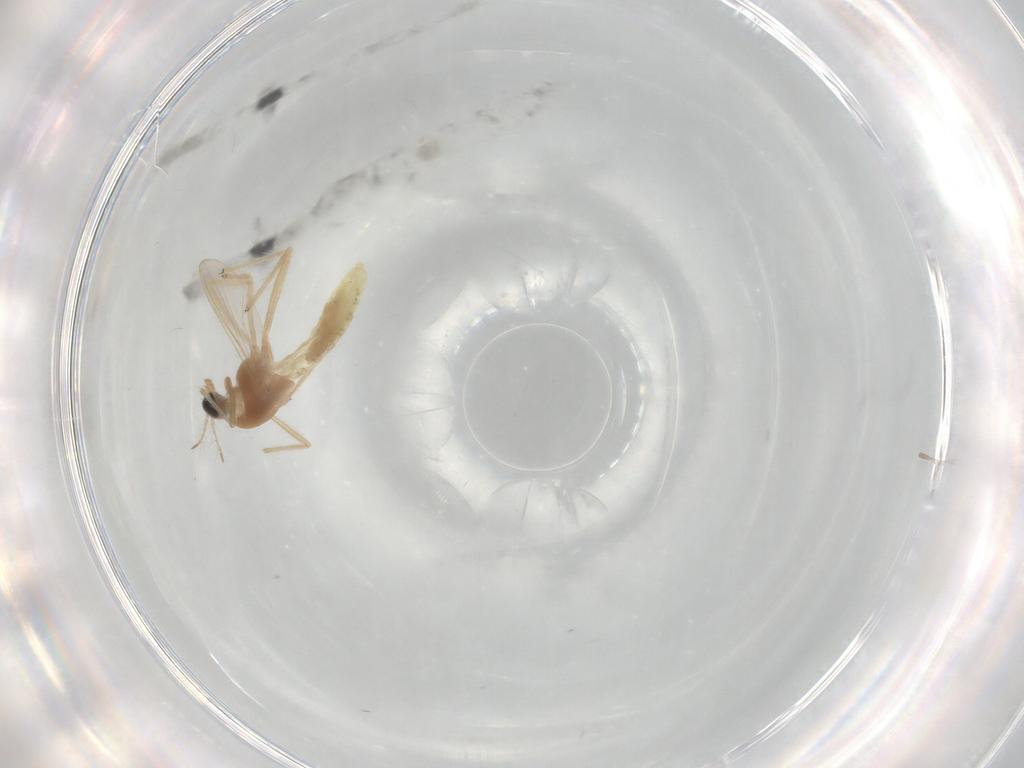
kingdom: Animalia
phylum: Arthropoda
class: Insecta
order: Diptera
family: Chironomidae
